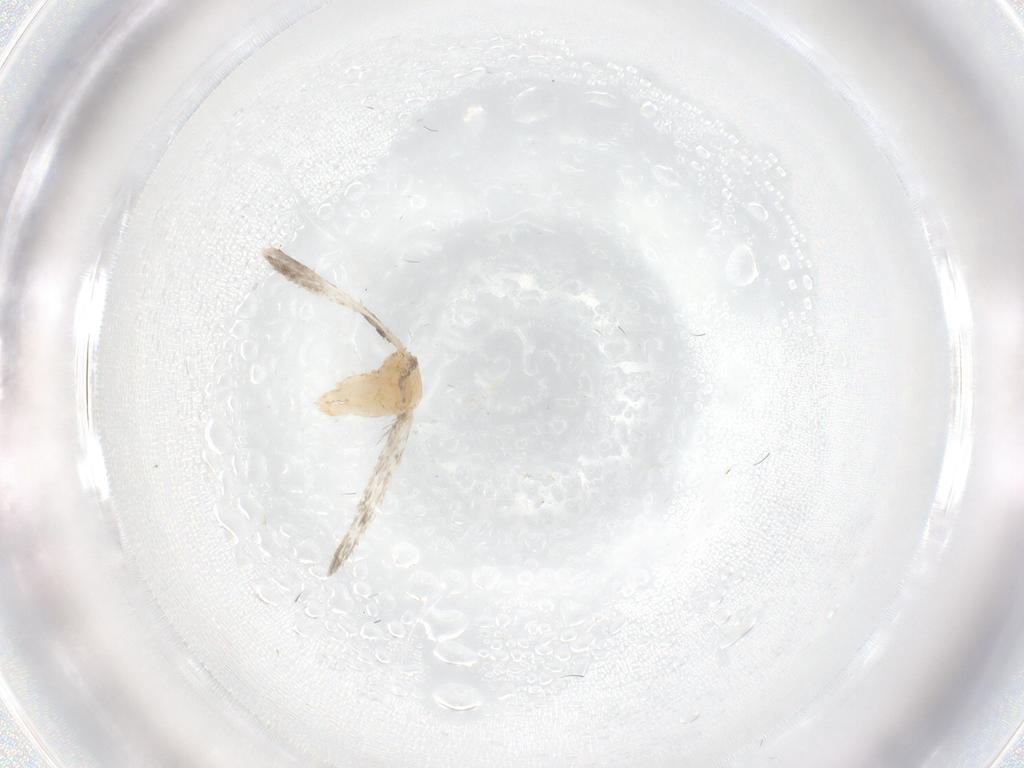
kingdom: Animalia
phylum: Arthropoda
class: Insecta
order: Lepidoptera
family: Psychidae
